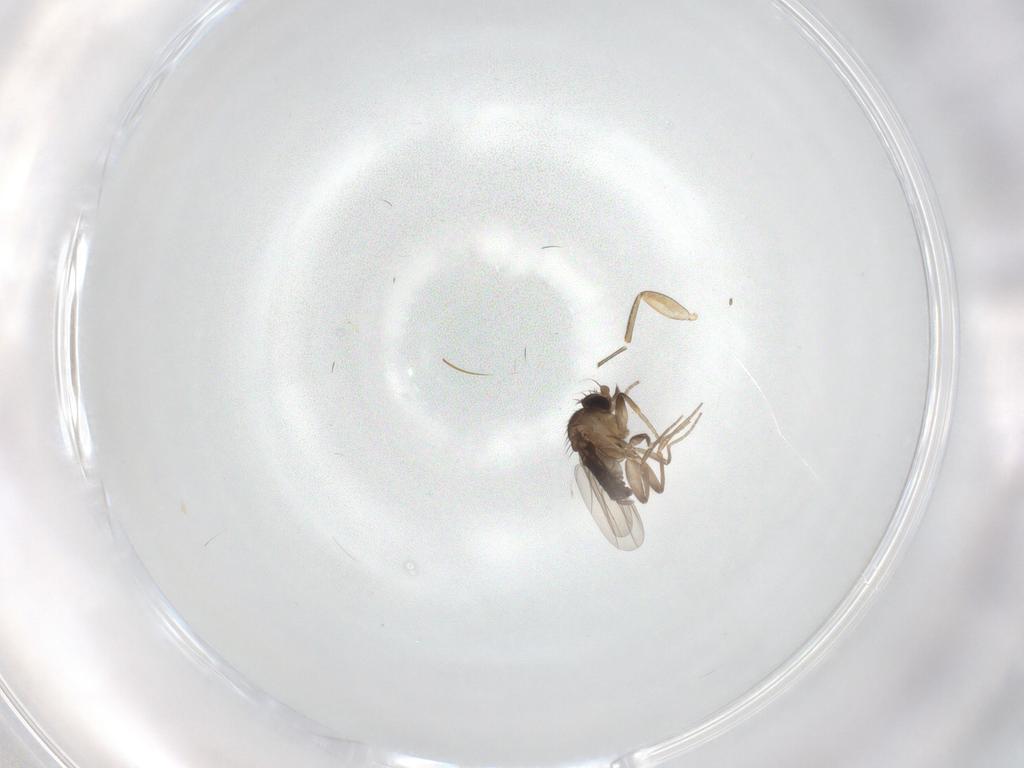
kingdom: Animalia
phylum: Arthropoda
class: Insecta
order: Diptera
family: Phoridae
